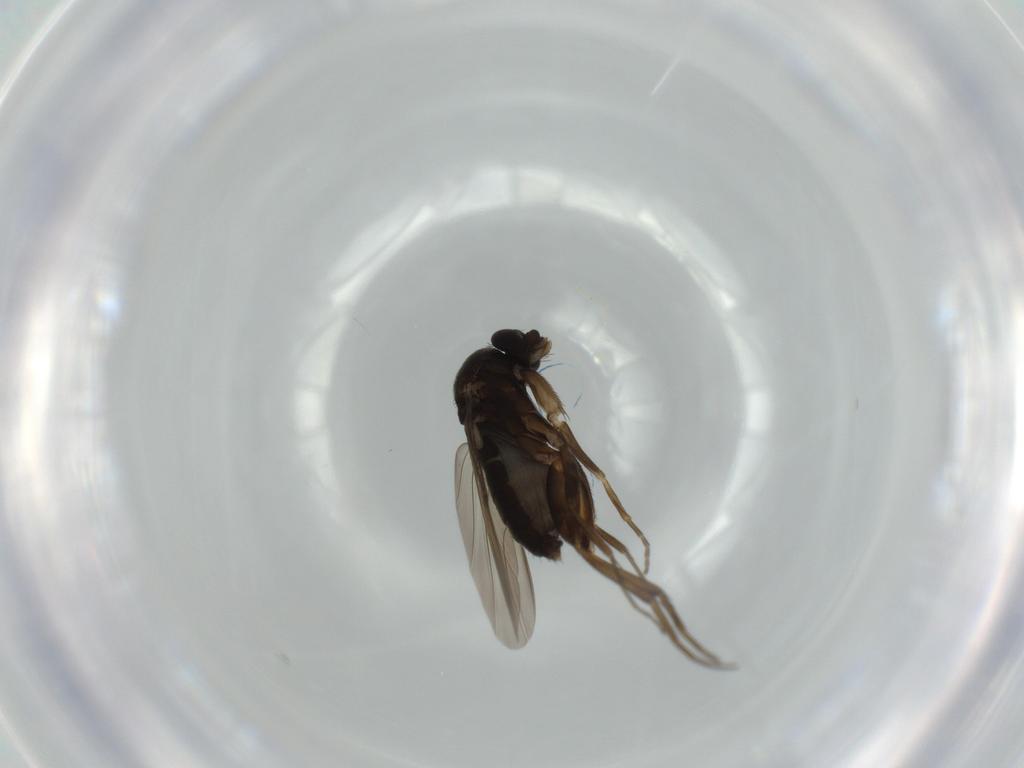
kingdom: Animalia
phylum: Arthropoda
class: Insecta
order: Diptera
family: Phoridae
